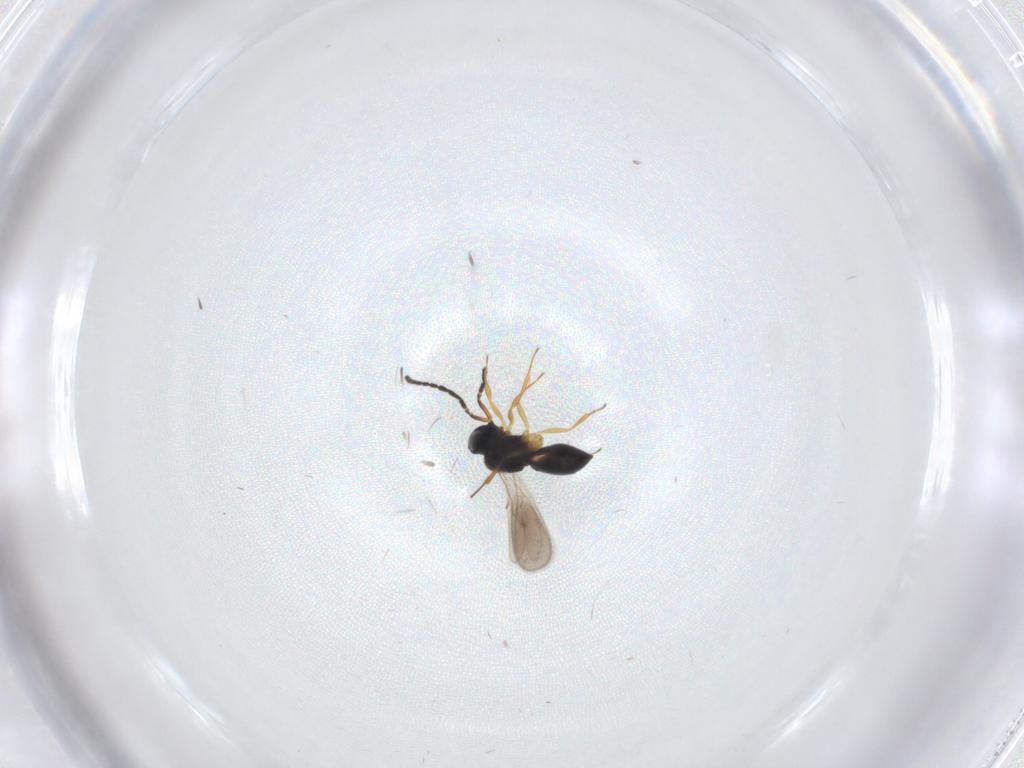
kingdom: Animalia
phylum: Arthropoda
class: Insecta
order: Hymenoptera
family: Scelionidae
